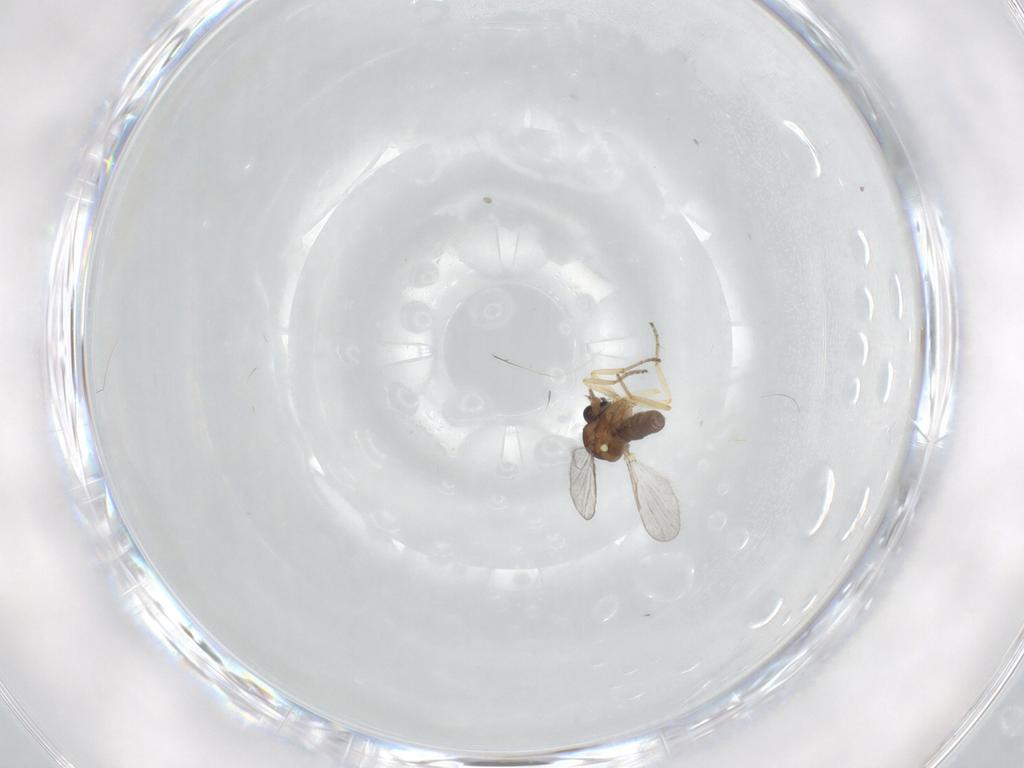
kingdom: Animalia
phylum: Arthropoda
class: Insecta
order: Diptera
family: Ceratopogonidae
